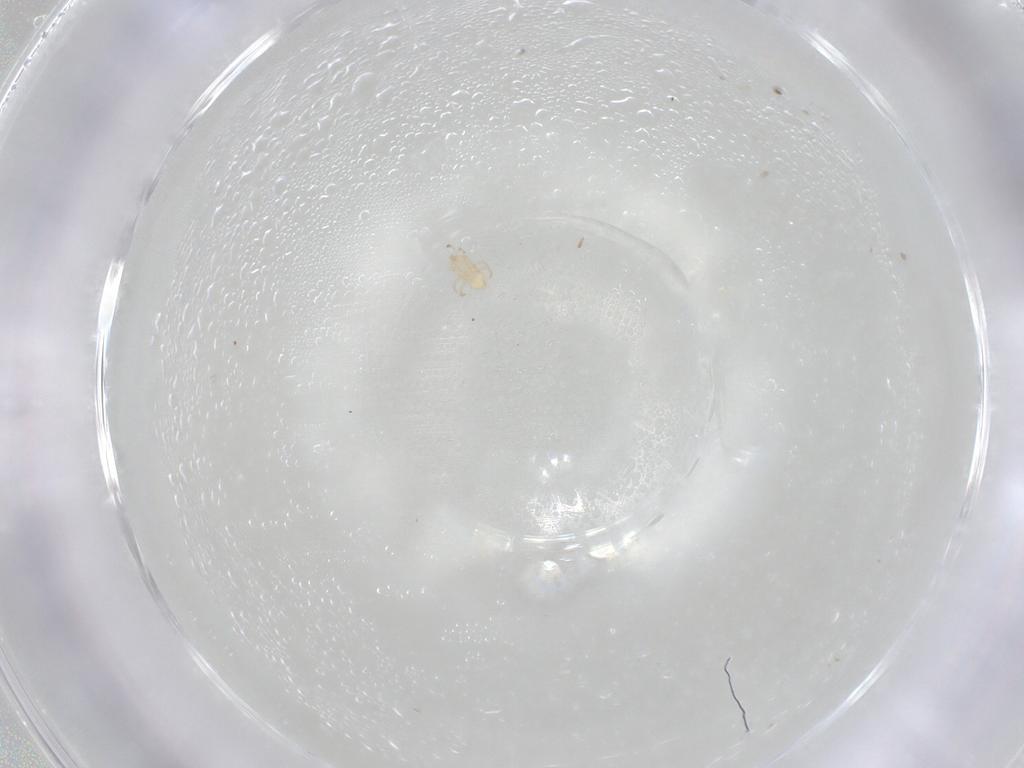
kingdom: Animalia
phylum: Arthropoda
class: Arachnida
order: Mesostigmata
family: Ascidae
